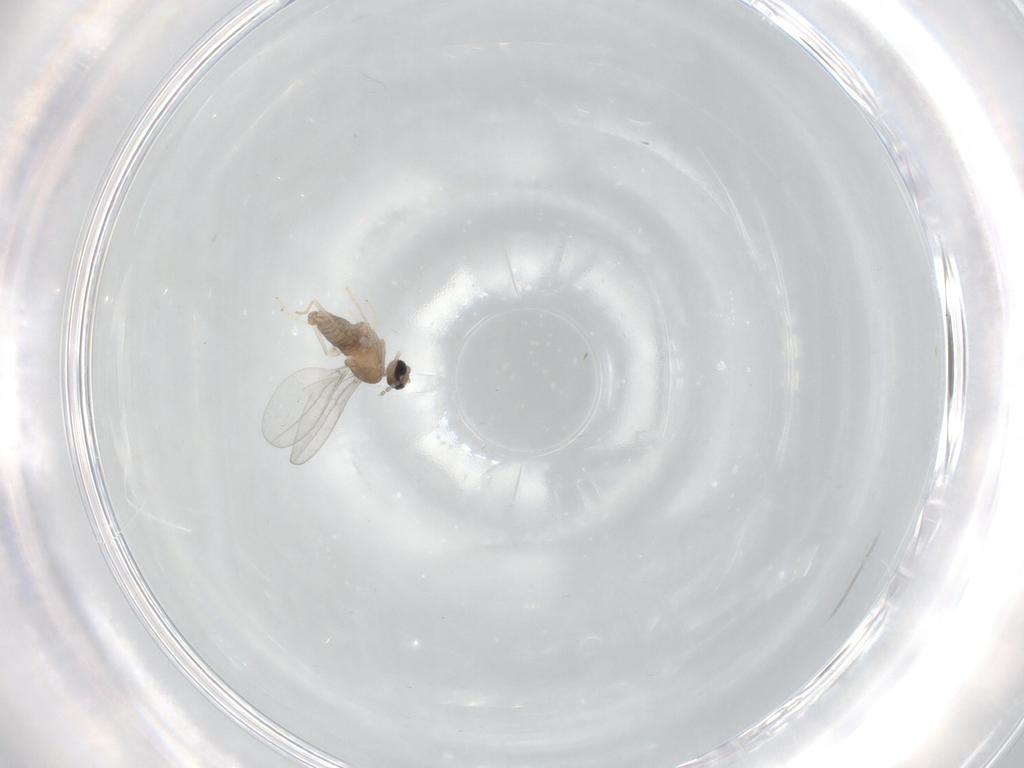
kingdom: Animalia
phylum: Arthropoda
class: Insecta
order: Diptera
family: Cecidomyiidae
